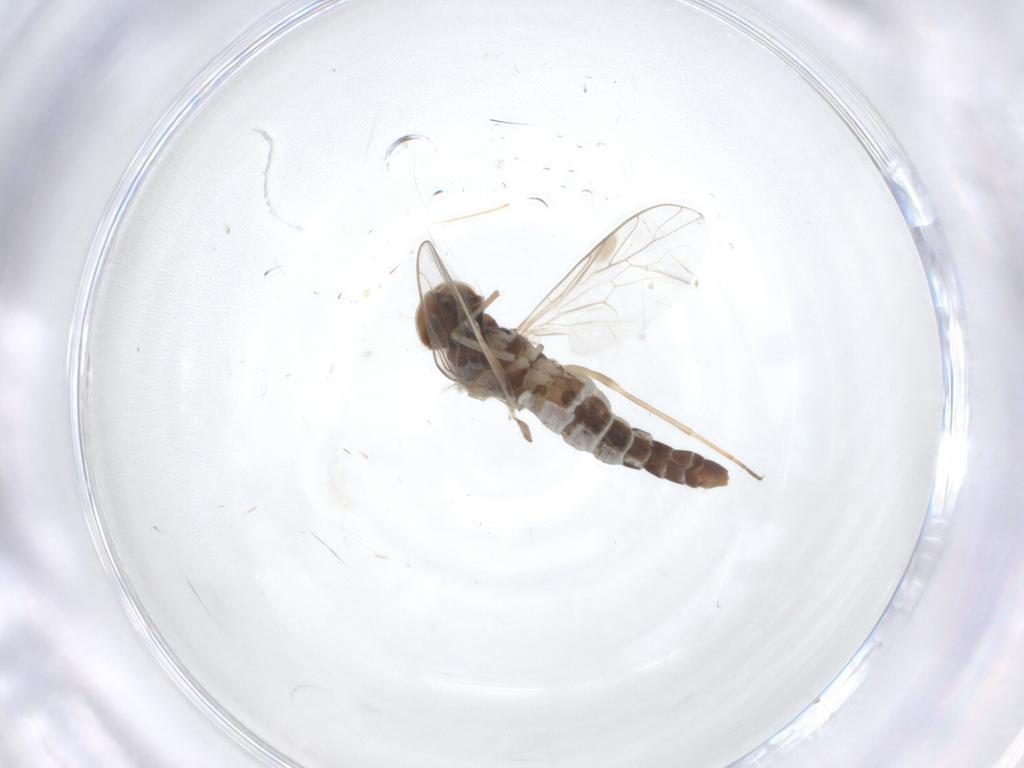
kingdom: Animalia
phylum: Arthropoda
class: Insecta
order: Diptera
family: Scenopinidae
